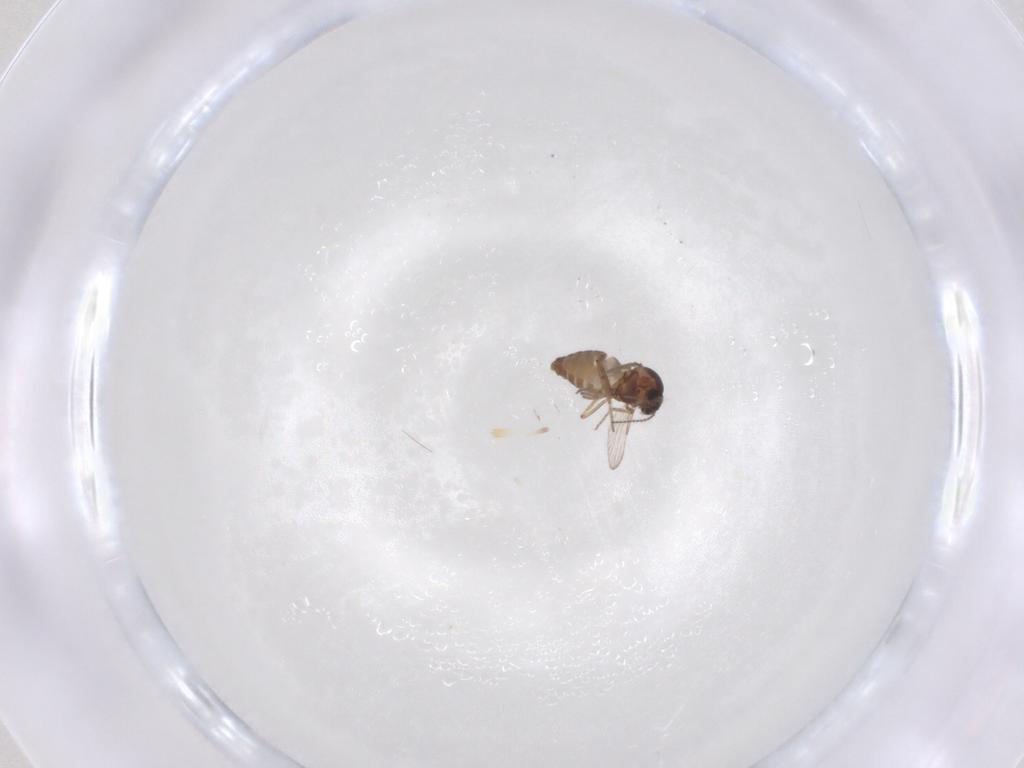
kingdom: Animalia
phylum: Arthropoda
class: Insecta
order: Diptera
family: Ceratopogonidae
